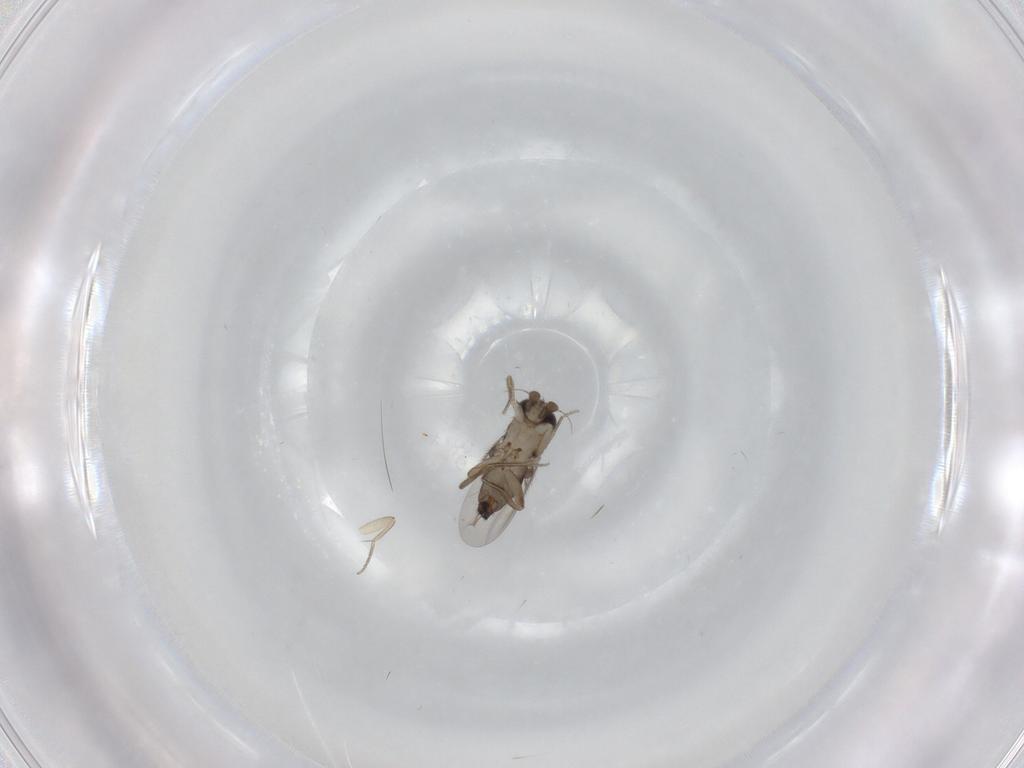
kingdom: Animalia
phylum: Arthropoda
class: Insecta
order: Diptera
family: Phoridae
